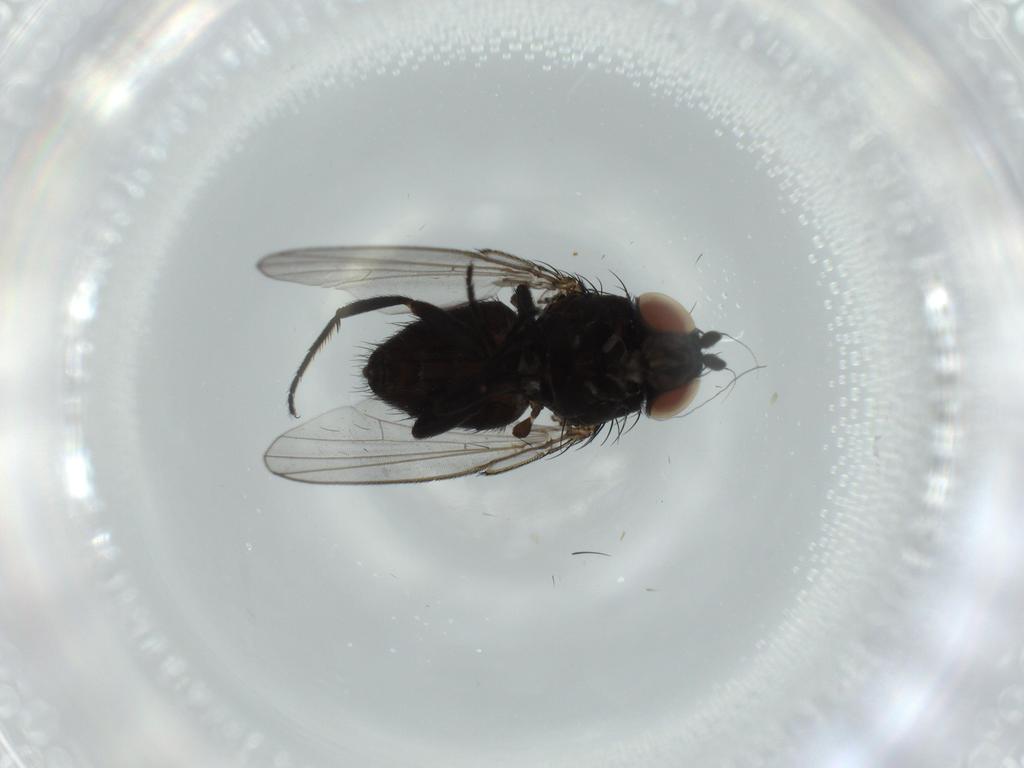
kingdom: Animalia
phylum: Arthropoda
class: Insecta
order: Diptera
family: Milichiidae
